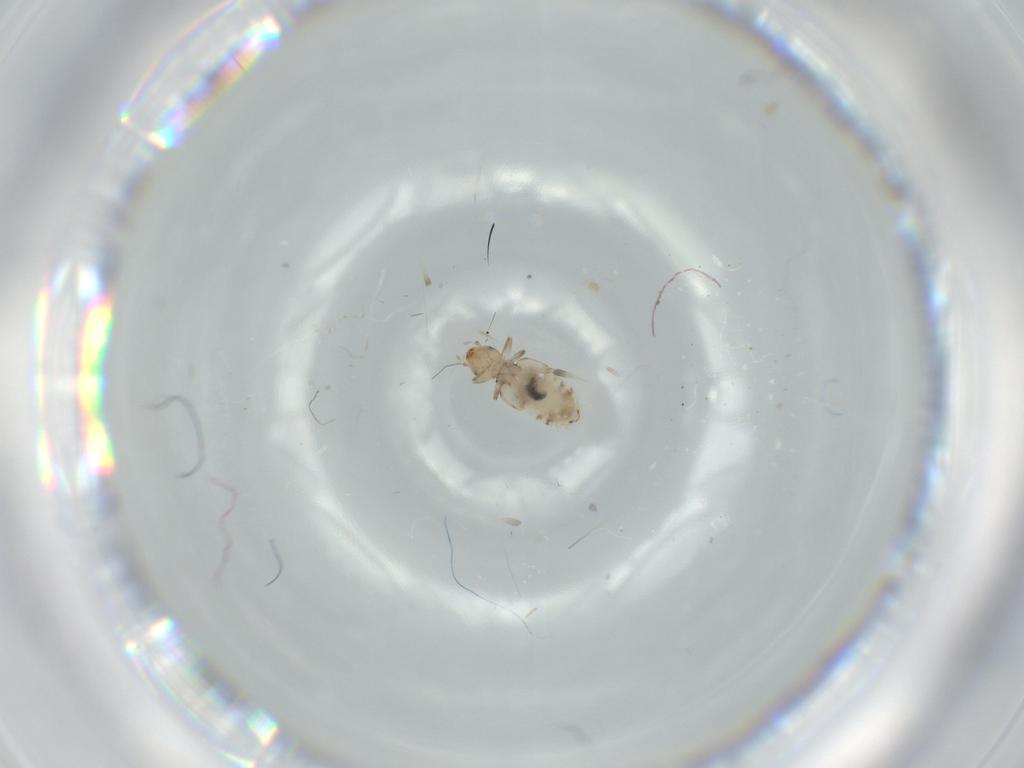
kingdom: Animalia
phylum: Arthropoda
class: Insecta
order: Psocodea
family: Liposcelididae
